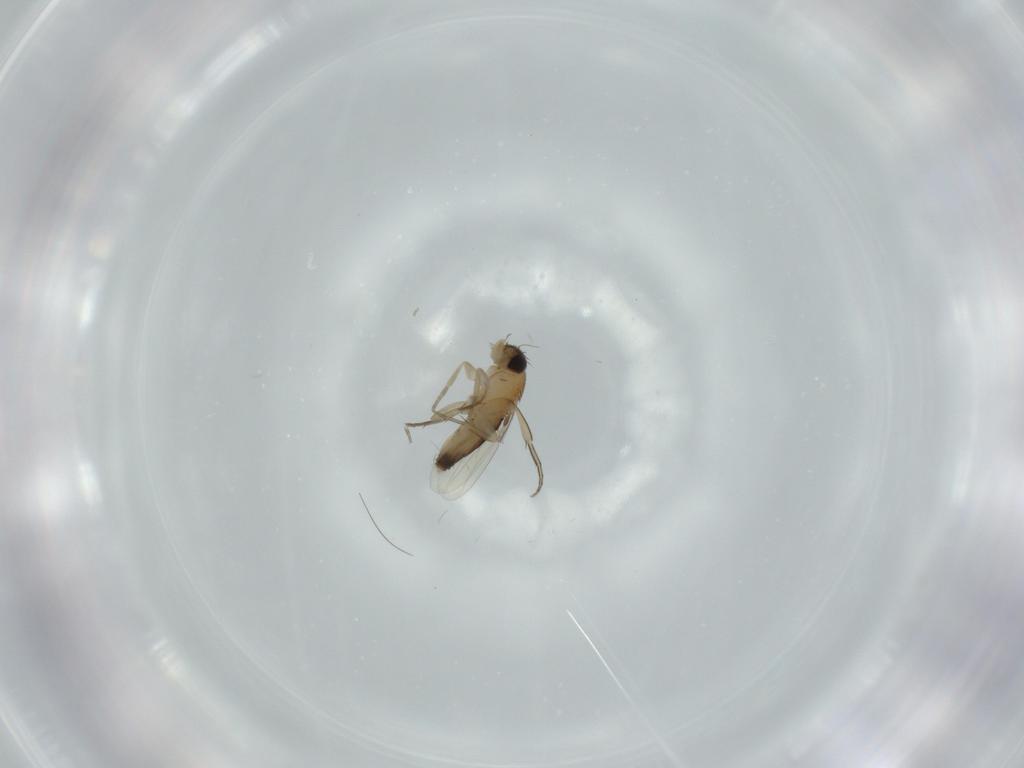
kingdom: Animalia
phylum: Arthropoda
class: Insecta
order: Diptera
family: Phoridae
